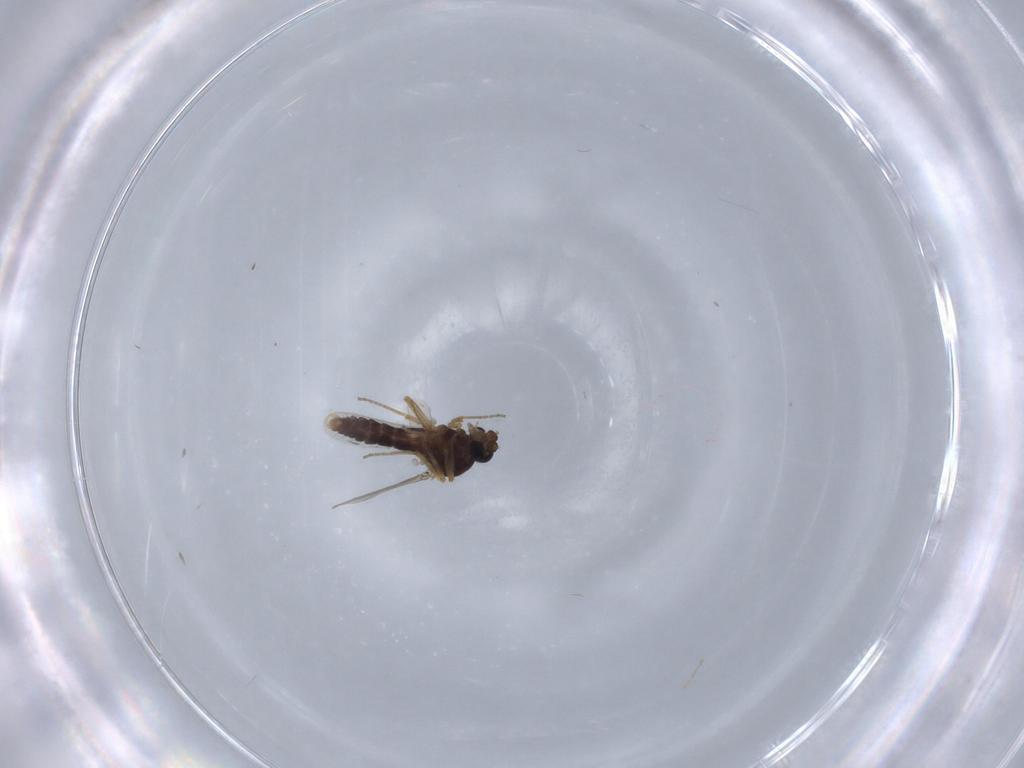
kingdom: Animalia
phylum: Arthropoda
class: Insecta
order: Diptera
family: Ceratopogonidae
